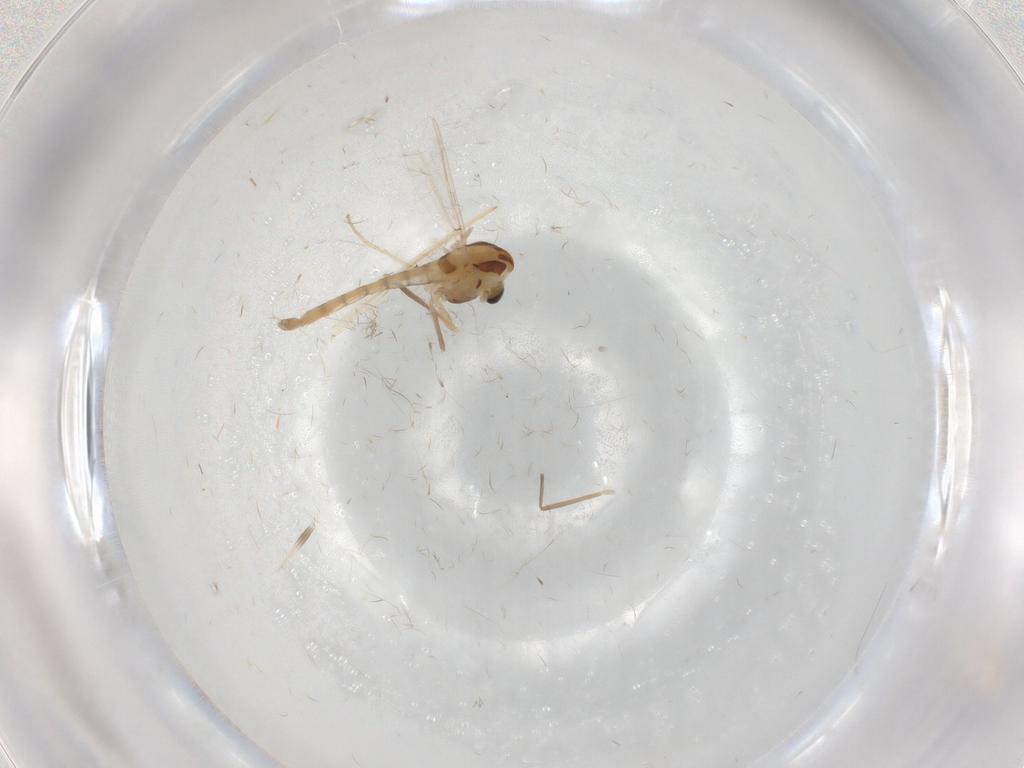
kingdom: Animalia
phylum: Arthropoda
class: Insecta
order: Diptera
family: Chironomidae
